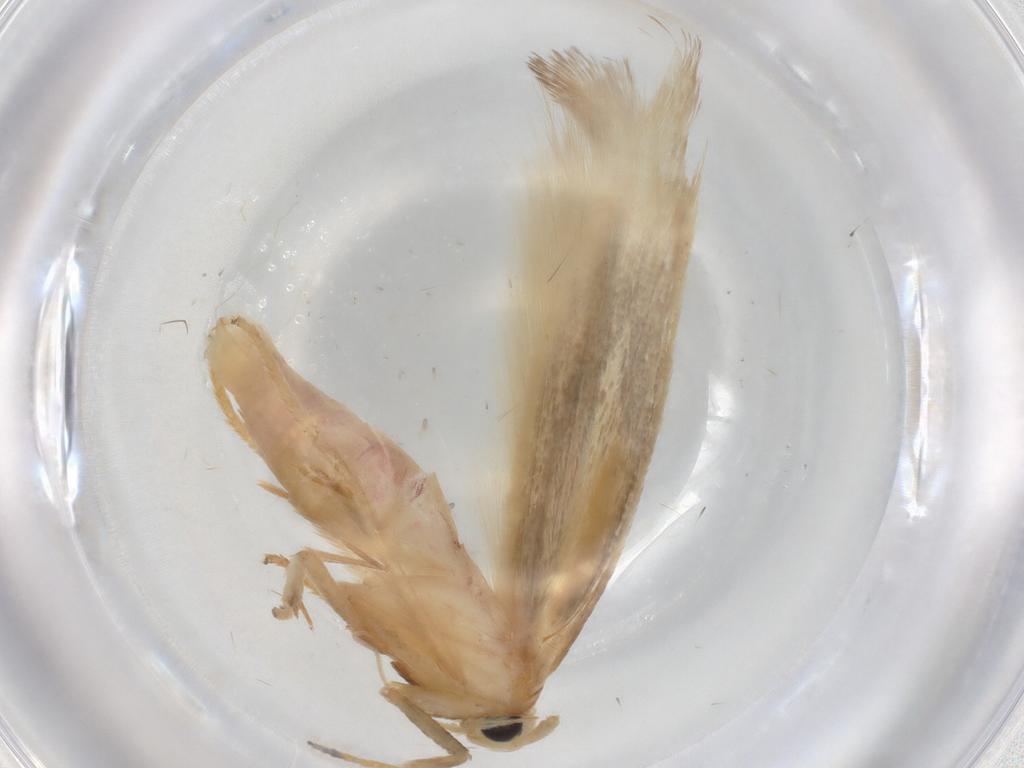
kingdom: Animalia
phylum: Arthropoda
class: Insecta
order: Lepidoptera
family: Geometridae
